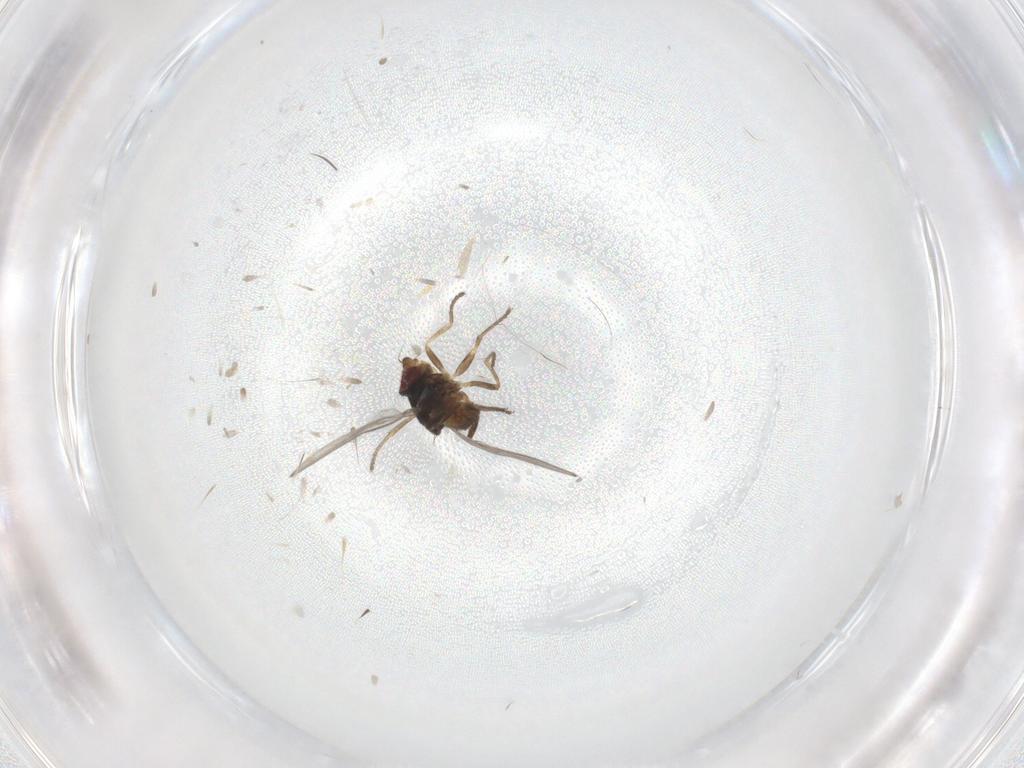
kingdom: Animalia
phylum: Arthropoda
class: Insecta
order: Diptera
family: Chloropidae
